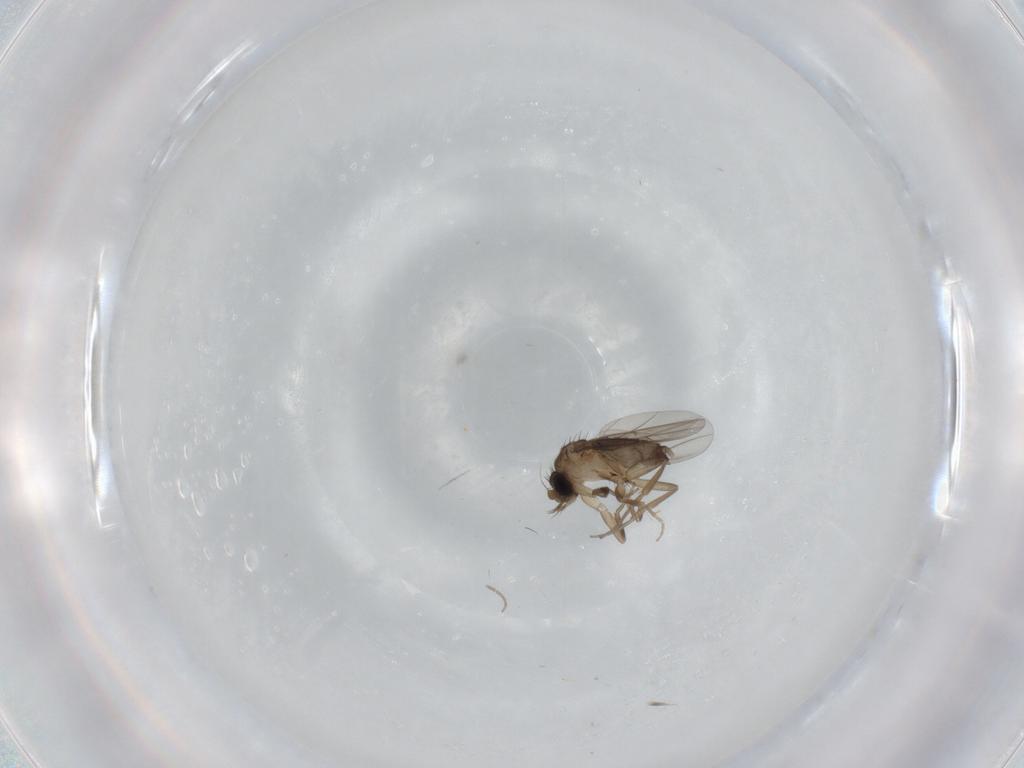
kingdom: Animalia
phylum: Arthropoda
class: Insecta
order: Diptera
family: Phoridae
